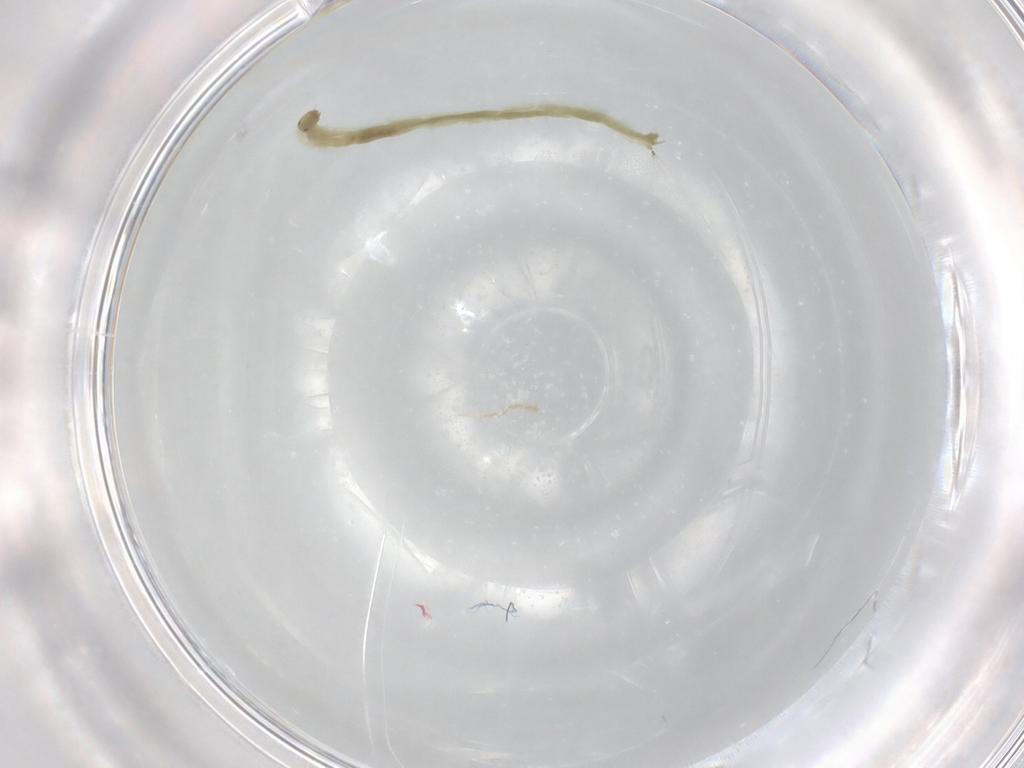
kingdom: Animalia
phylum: Arthropoda
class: Insecta
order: Diptera
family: Chironomidae
